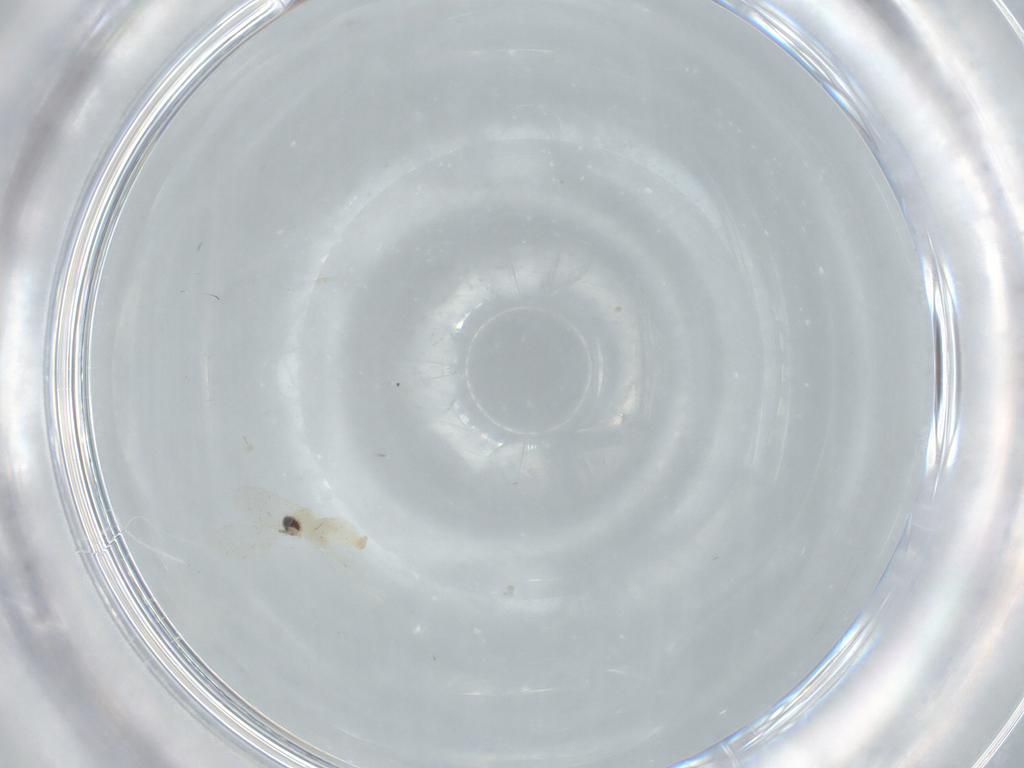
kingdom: Animalia
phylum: Arthropoda
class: Insecta
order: Diptera
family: Cecidomyiidae
